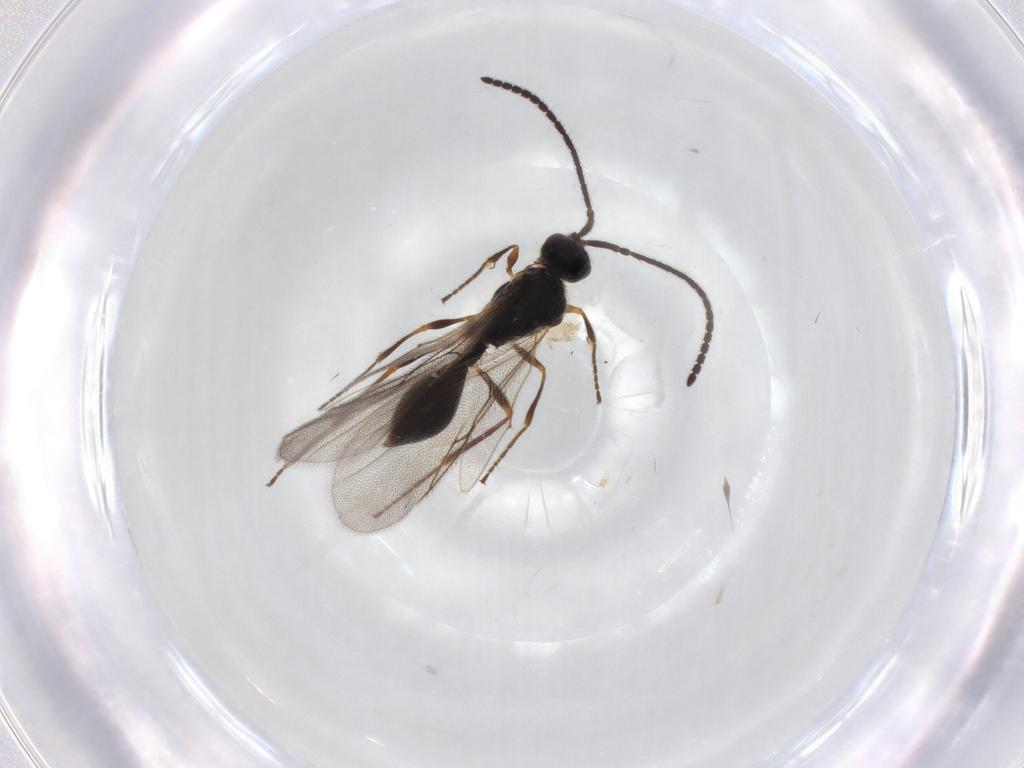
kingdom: Animalia
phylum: Arthropoda
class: Insecta
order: Hymenoptera
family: Diapriidae
